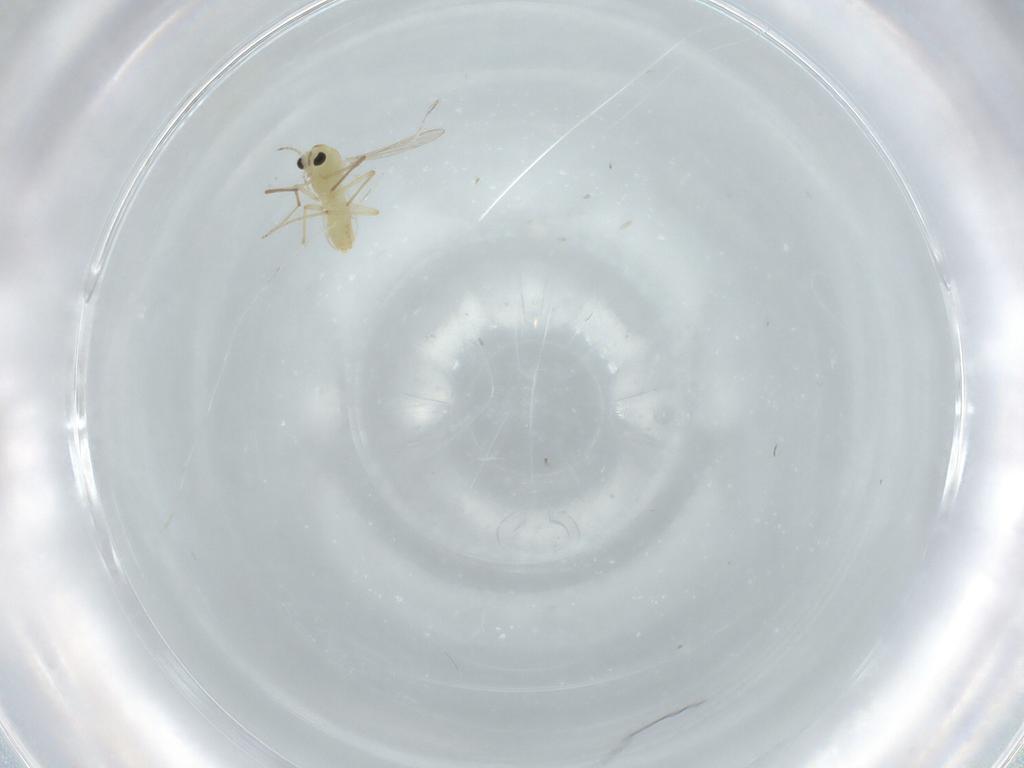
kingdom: Animalia
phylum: Arthropoda
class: Insecta
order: Diptera
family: Chironomidae
